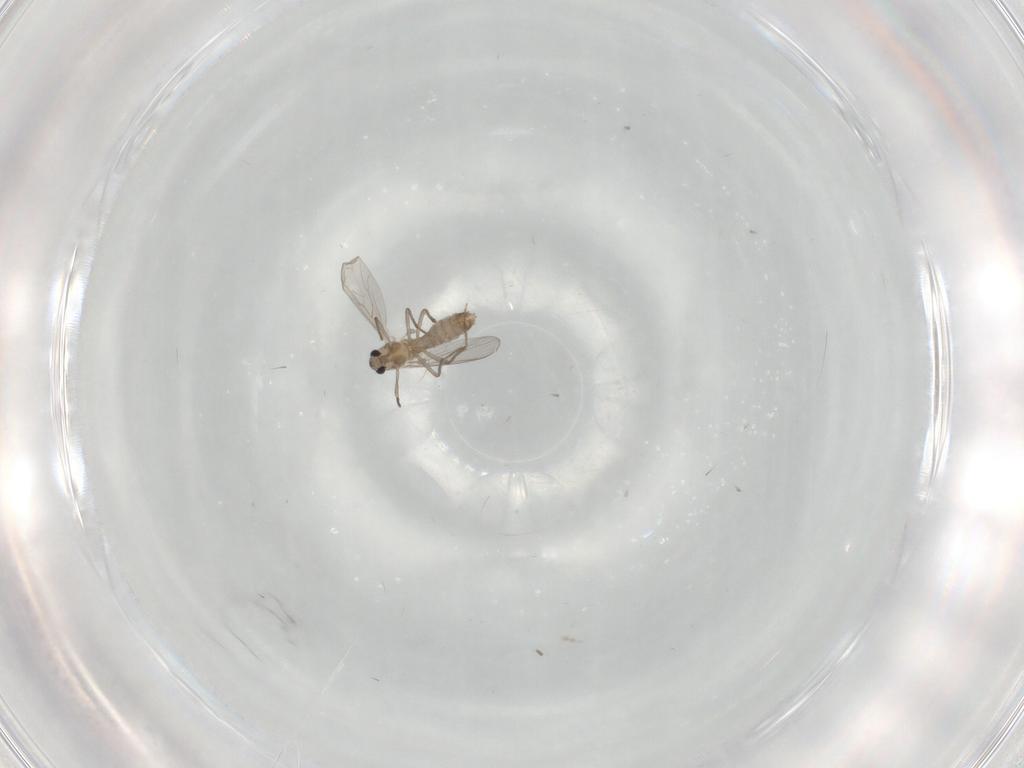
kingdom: Animalia
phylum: Arthropoda
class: Insecta
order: Diptera
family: Chironomidae
